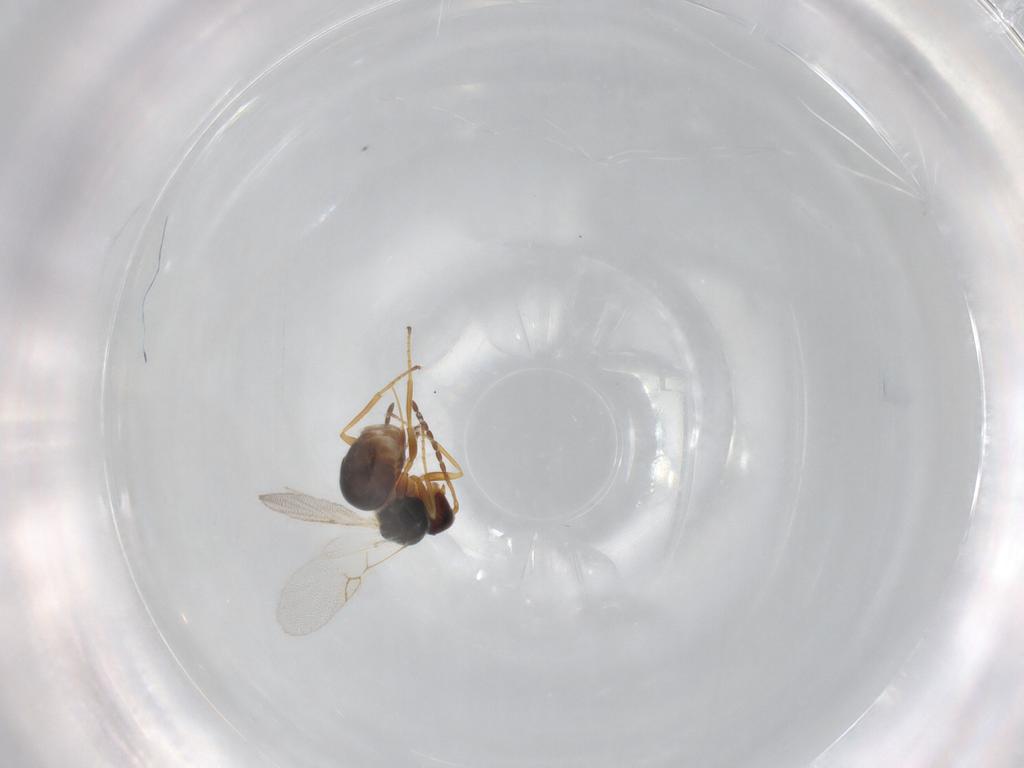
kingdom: Animalia
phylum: Arthropoda
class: Insecta
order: Hymenoptera
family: Figitidae
